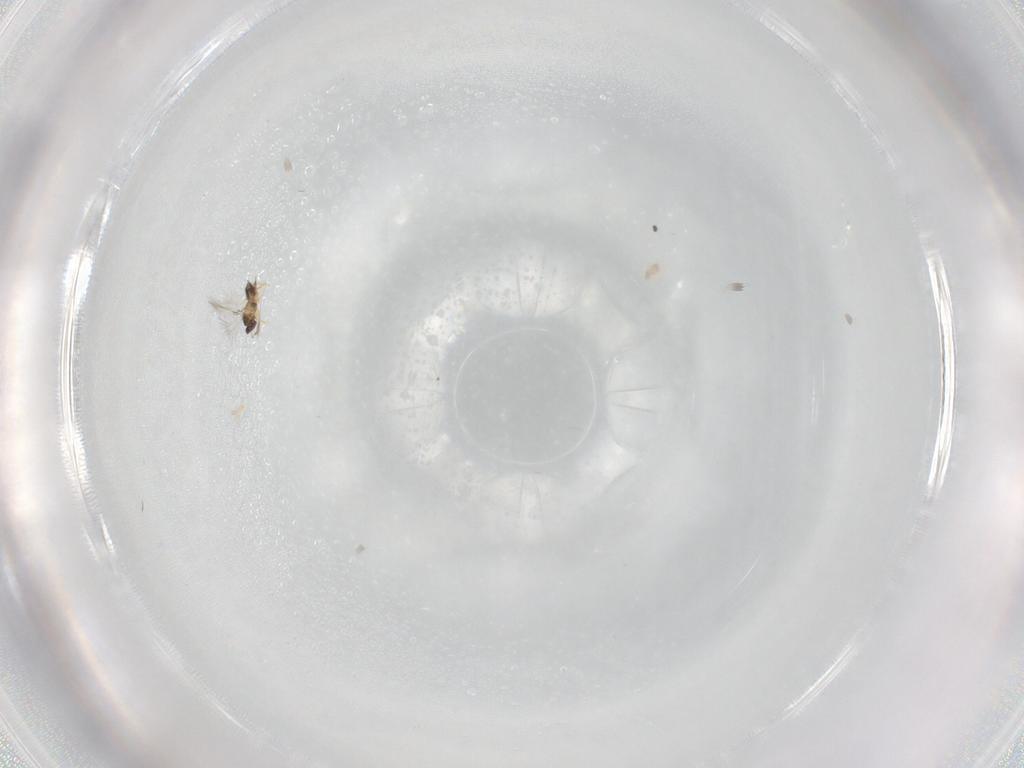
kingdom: Animalia
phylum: Arthropoda
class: Insecta
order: Hymenoptera
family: Mymaridae
